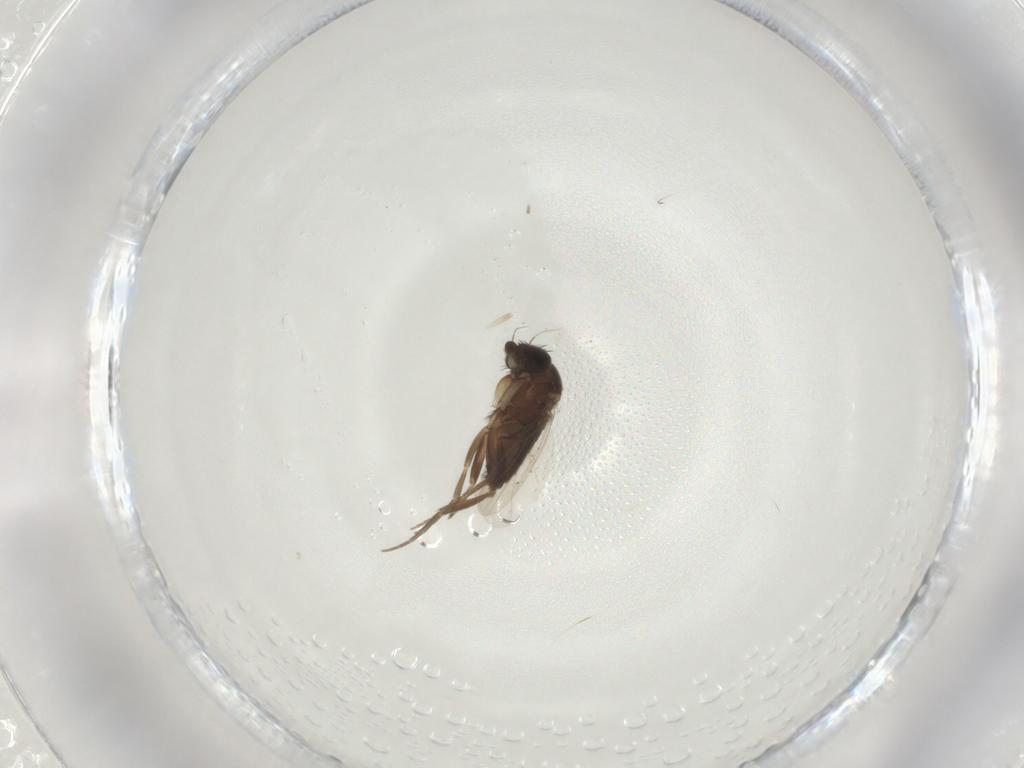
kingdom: Animalia
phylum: Arthropoda
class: Insecta
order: Diptera
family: Phoridae
